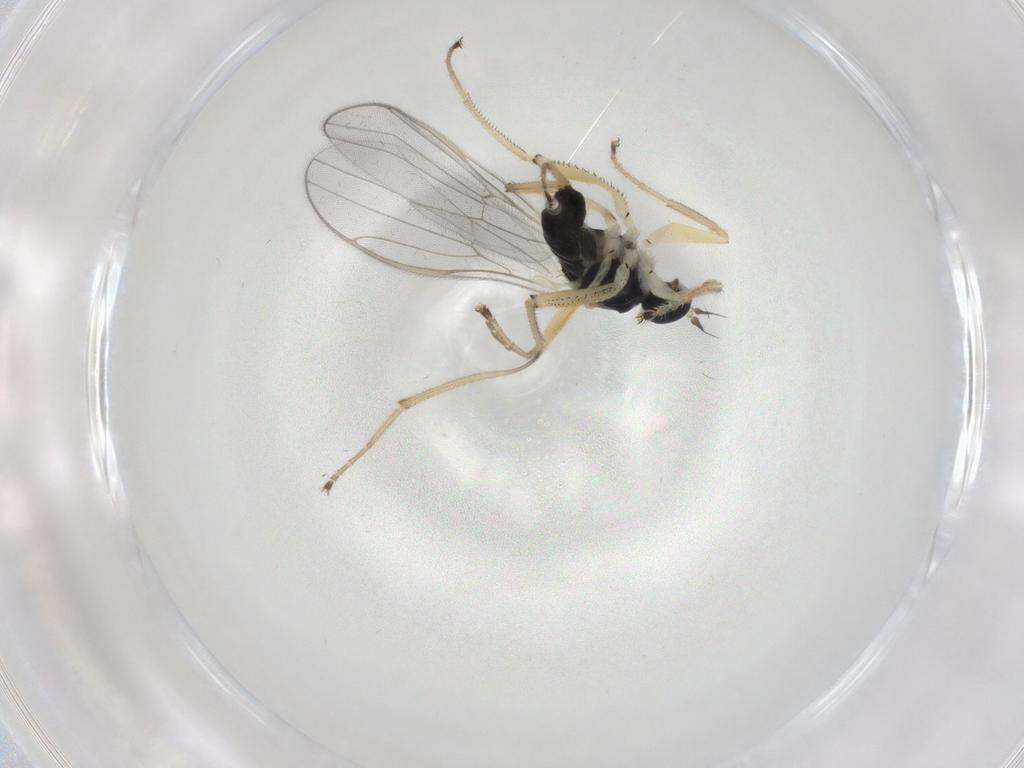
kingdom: Animalia
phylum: Arthropoda
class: Insecta
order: Diptera
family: Hybotidae
